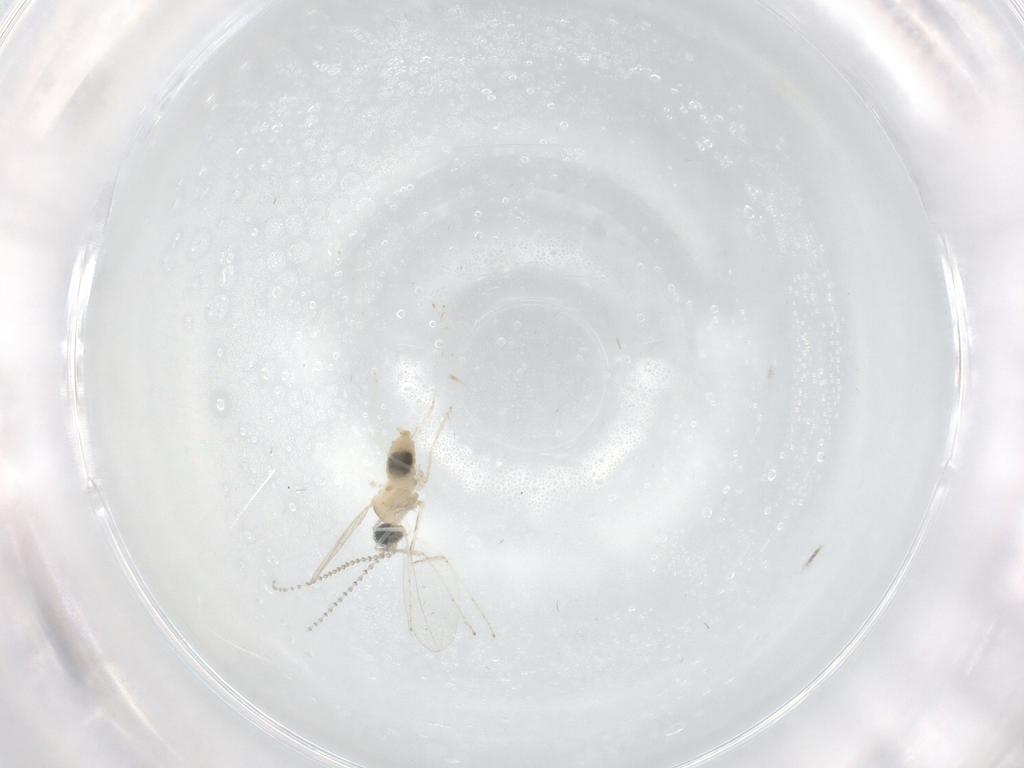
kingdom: Animalia
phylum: Arthropoda
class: Insecta
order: Diptera
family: Cecidomyiidae
